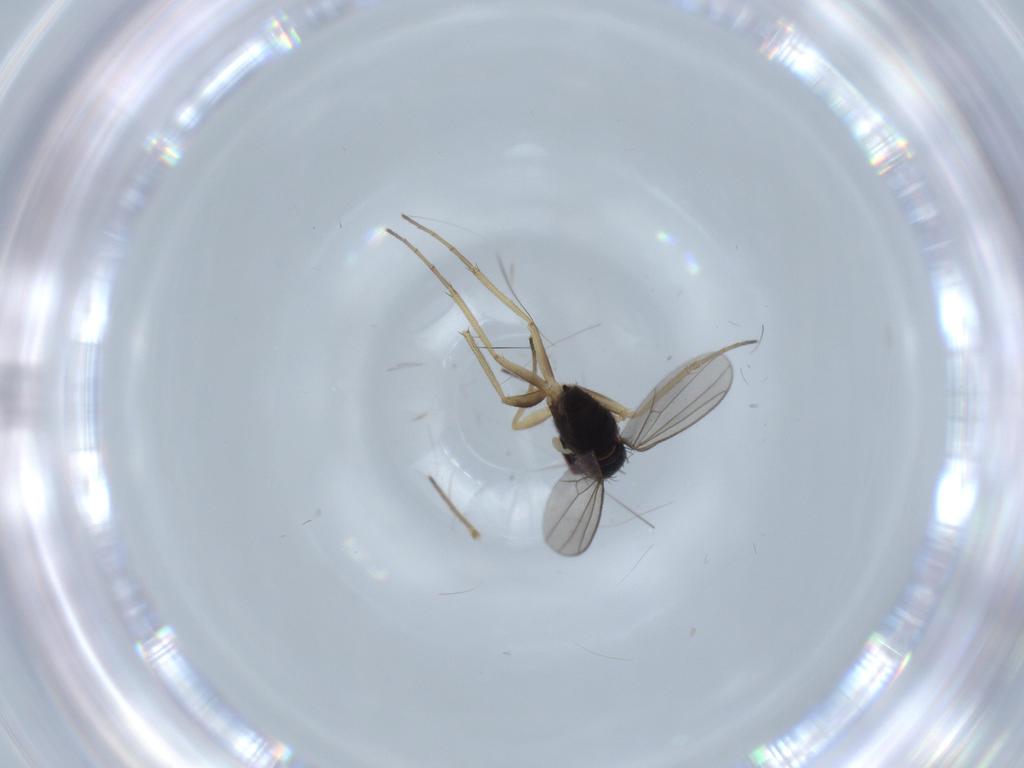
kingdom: Animalia
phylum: Arthropoda
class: Insecta
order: Diptera
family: Chironomidae
